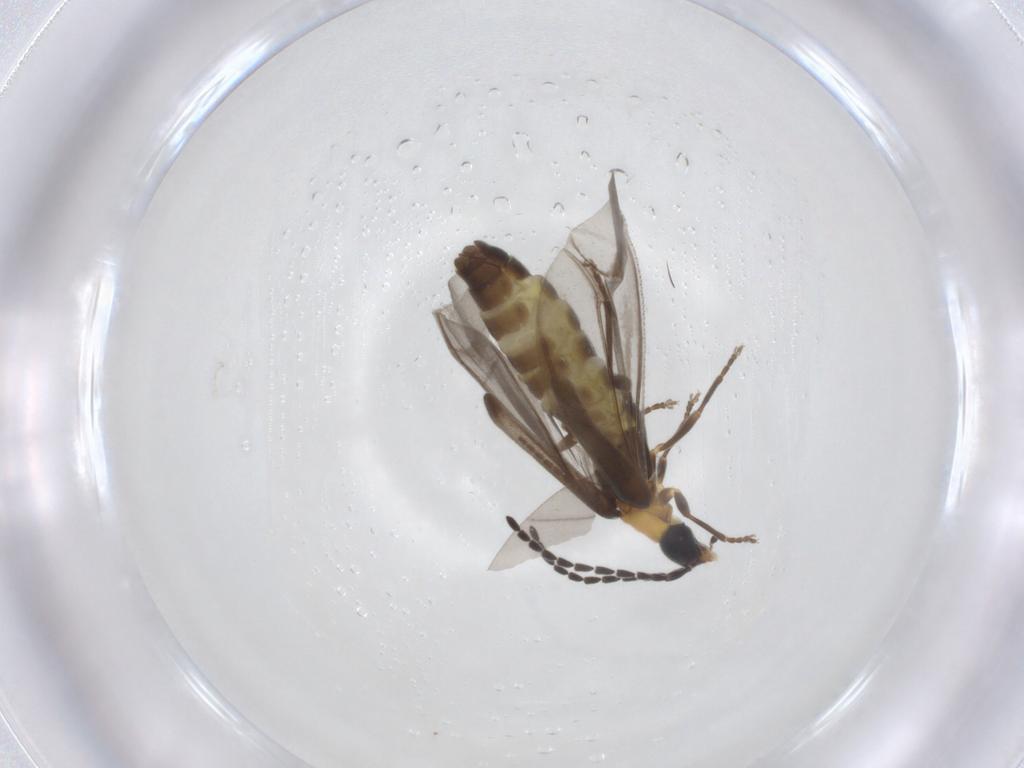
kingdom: Animalia
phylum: Arthropoda
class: Insecta
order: Coleoptera
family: Cantharidae
